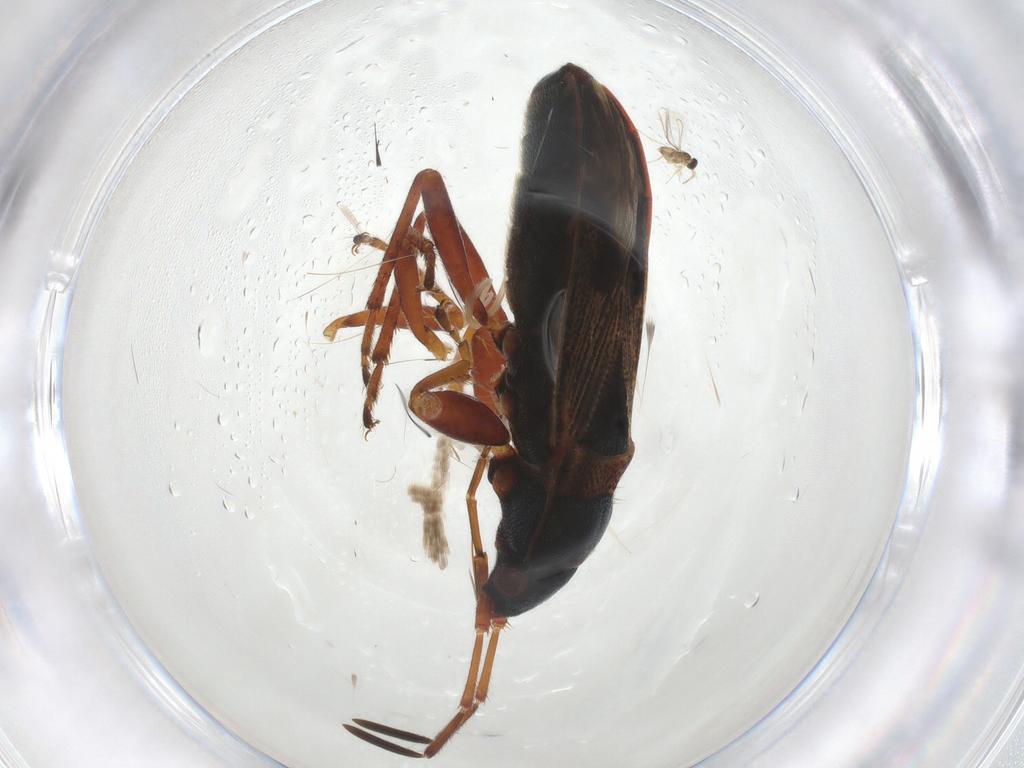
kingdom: Animalia
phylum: Arthropoda
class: Insecta
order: Hemiptera
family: Rhyparochromidae
